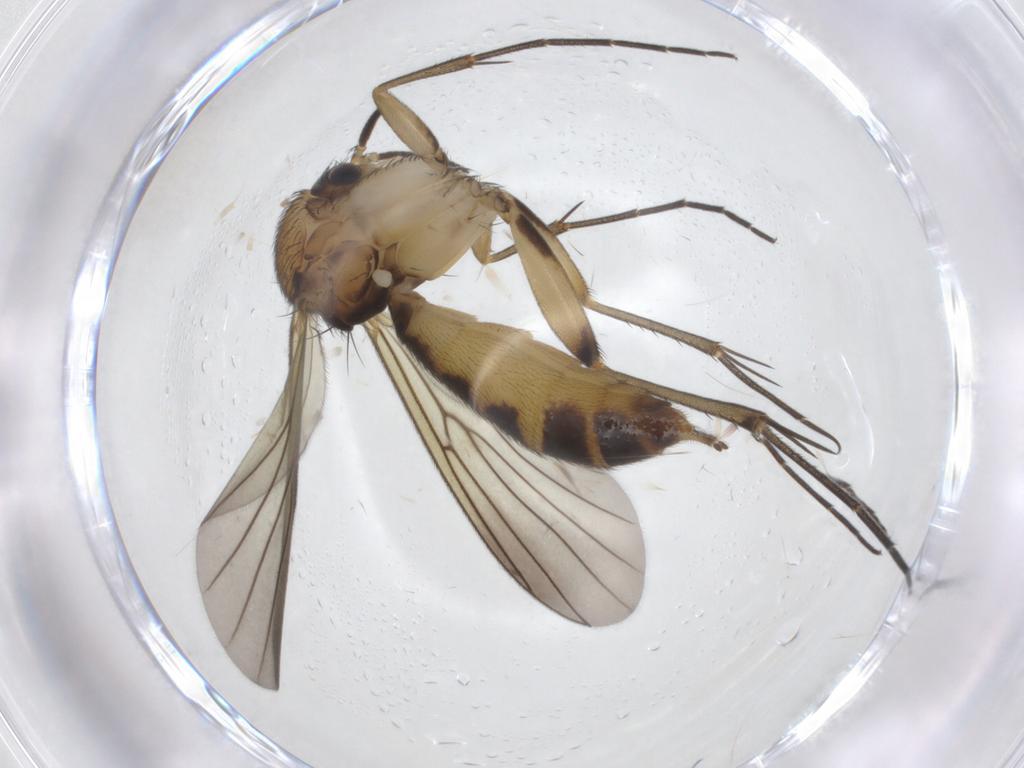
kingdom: Animalia
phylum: Arthropoda
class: Insecta
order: Diptera
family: Mycetophilidae
